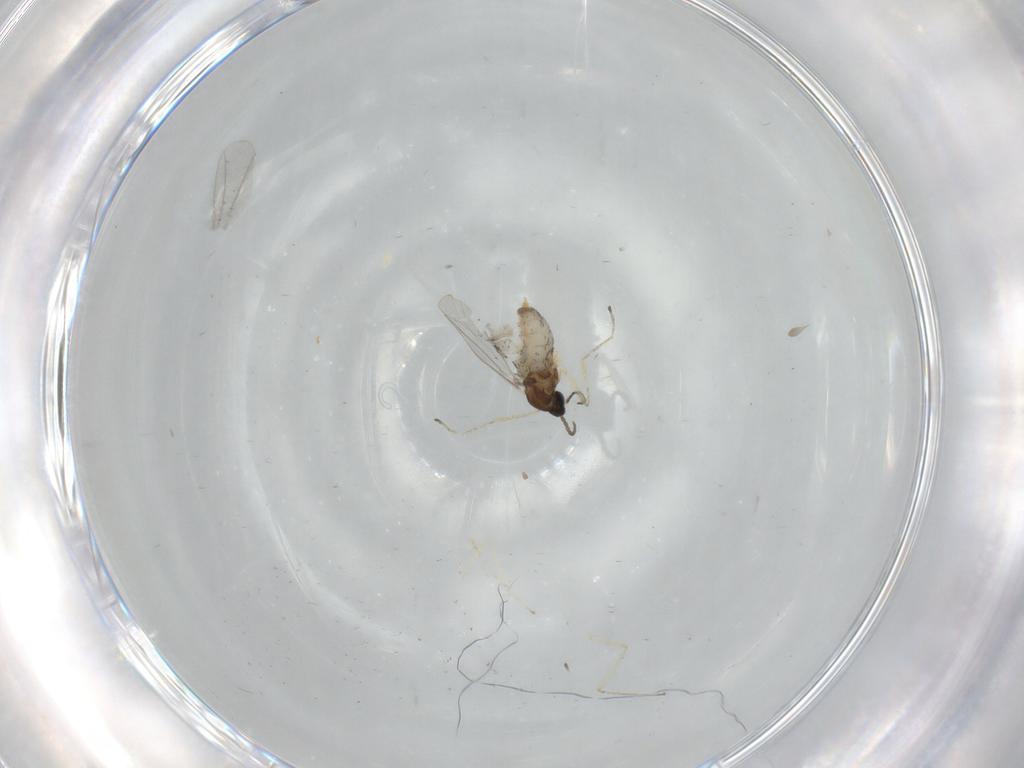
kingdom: Animalia
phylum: Arthropoda
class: Insecta
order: Diptera
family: Cecidomyiidae
